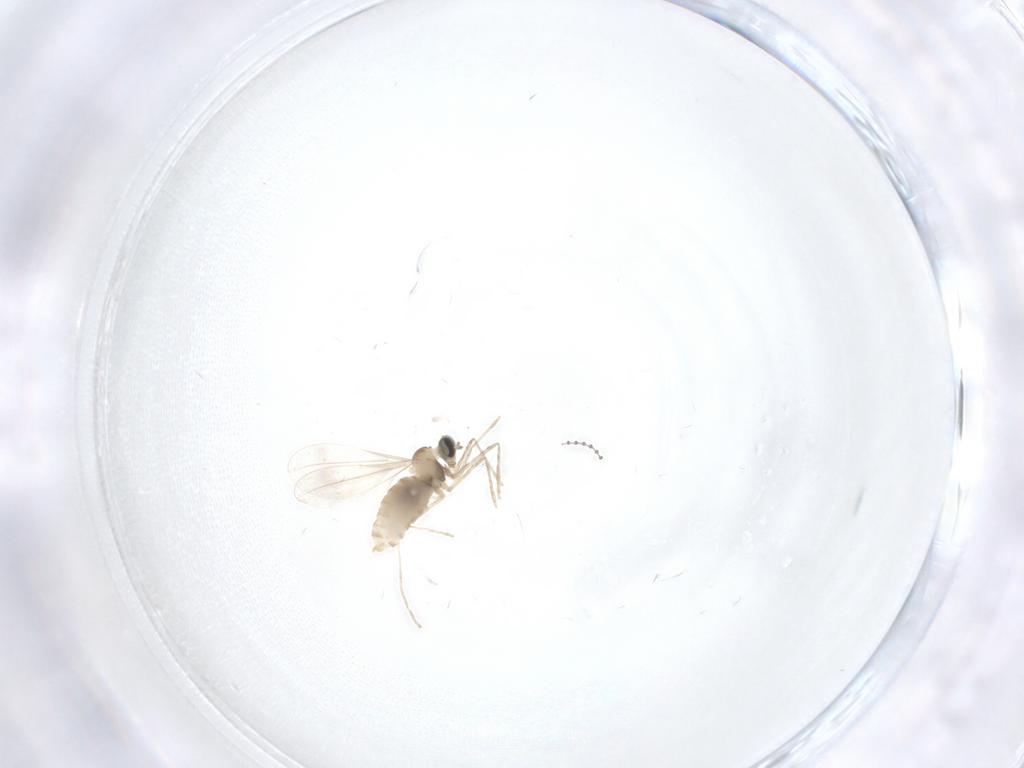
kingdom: Animalia
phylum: Arthropoda
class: Insecta
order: Diptera
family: Cecidomyiidae
